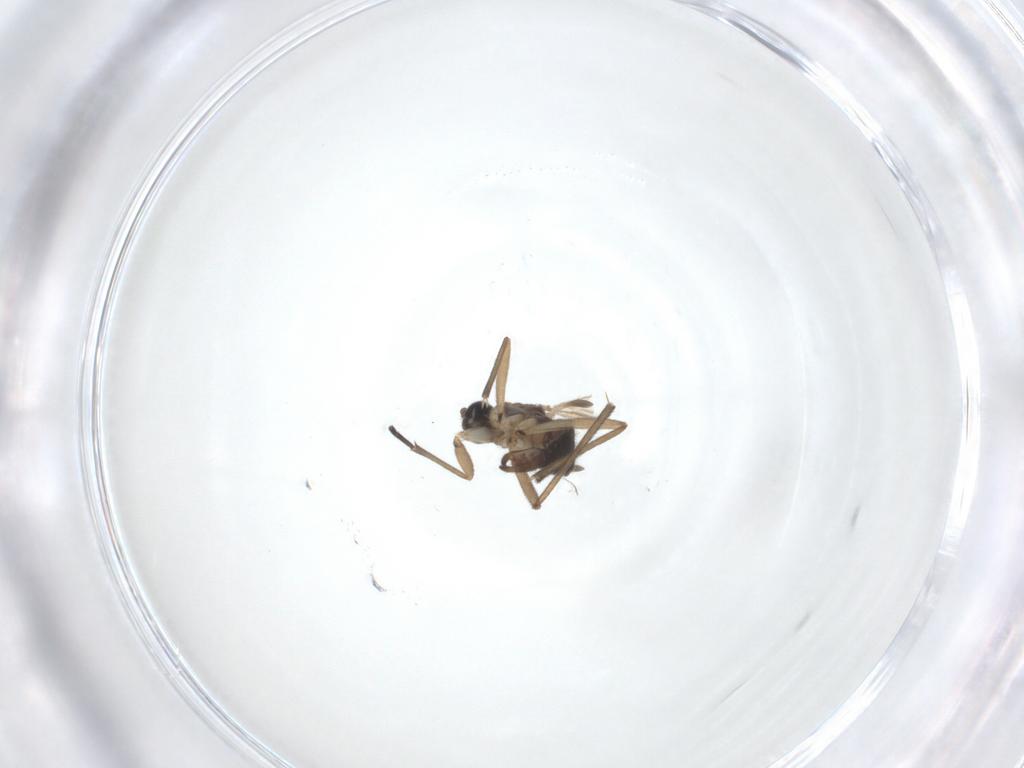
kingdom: Animalia
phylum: Arthropoda
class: Insecta
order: Diptera
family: Sciaridae
